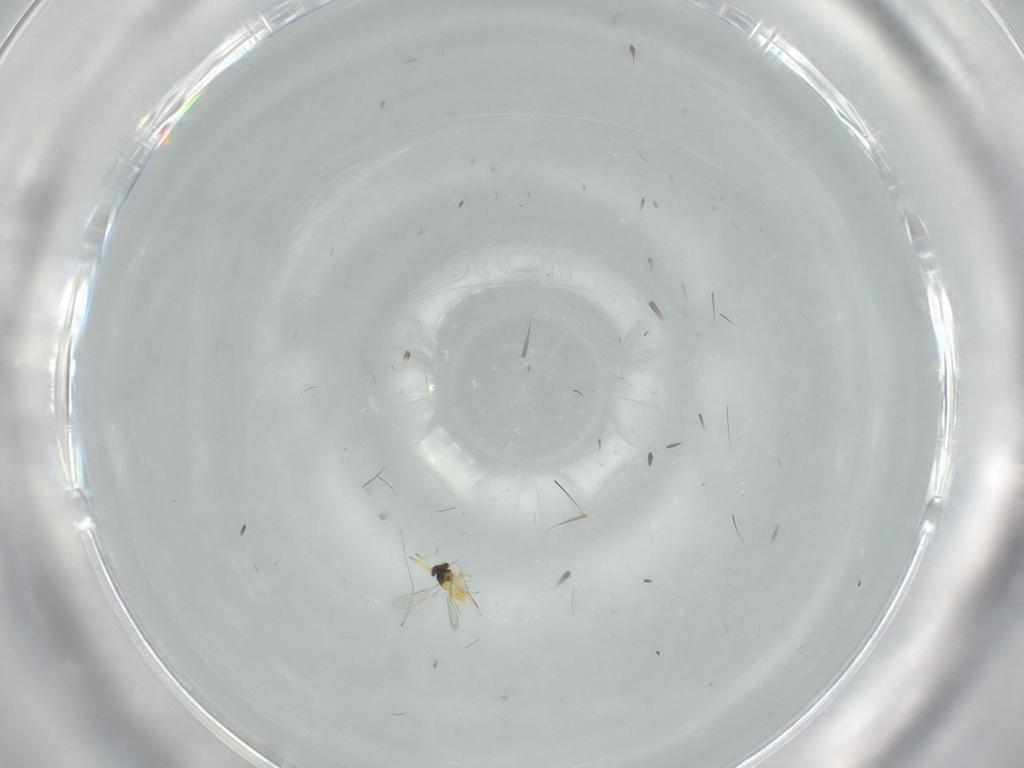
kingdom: Animalia
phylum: Arthropoda
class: Insecta
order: Hymenoptera
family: Aphelinidae
